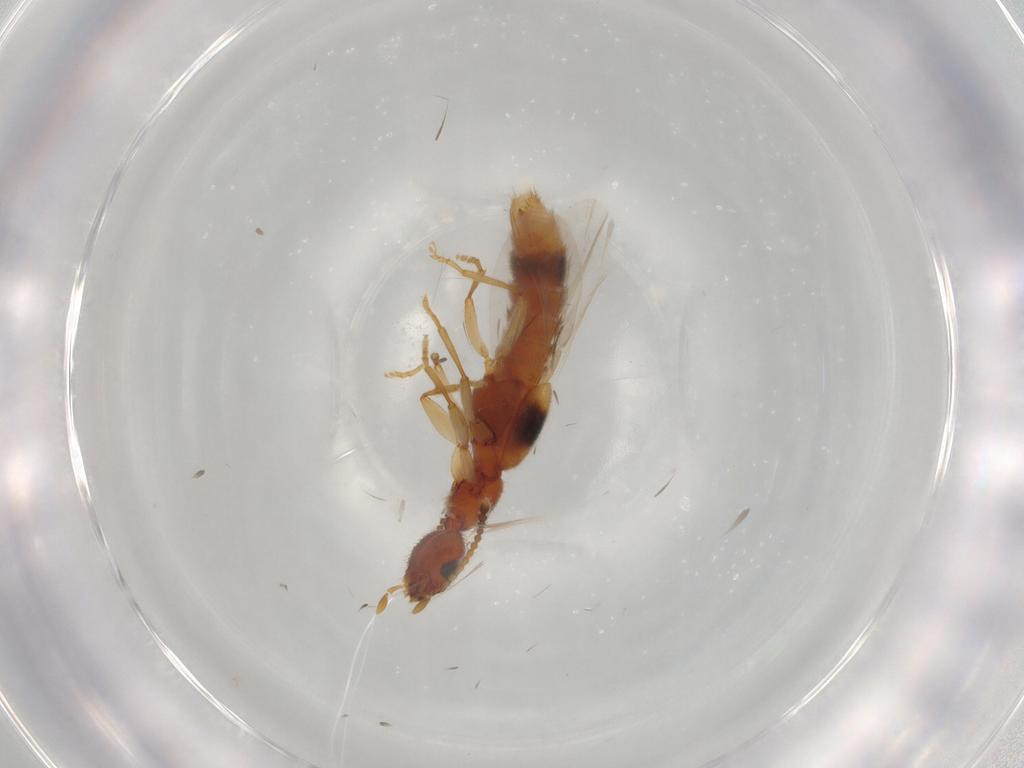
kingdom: Animalia
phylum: Arthropoda
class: Insecta
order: Coleoptera
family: Staphylinidae
